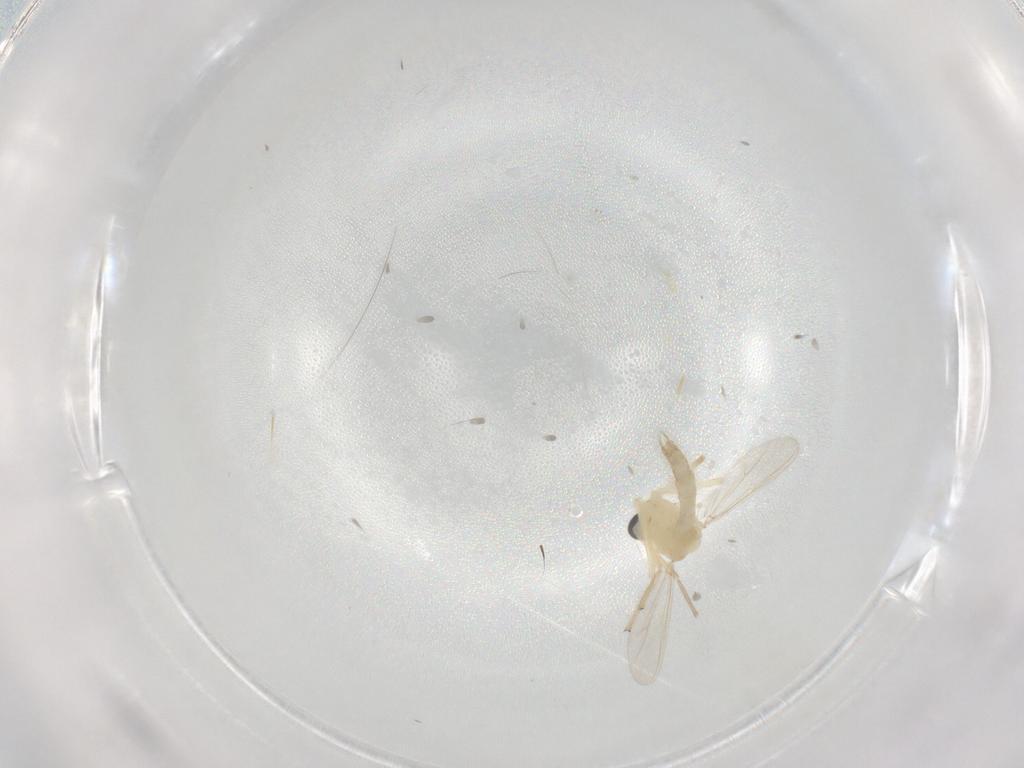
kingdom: Animalia
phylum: Arthropoda
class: Insecta
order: Diptera
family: Chironomidae
